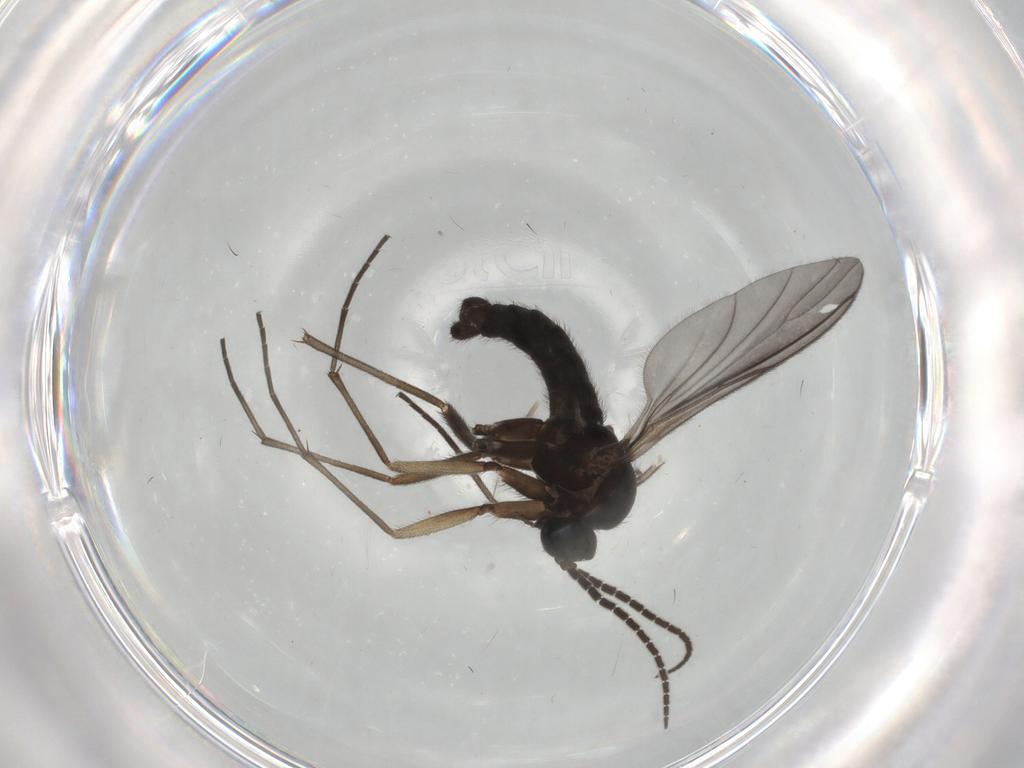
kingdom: Animalia
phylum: Arthropoda
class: Insecta
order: Diptera
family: Sciaridae
